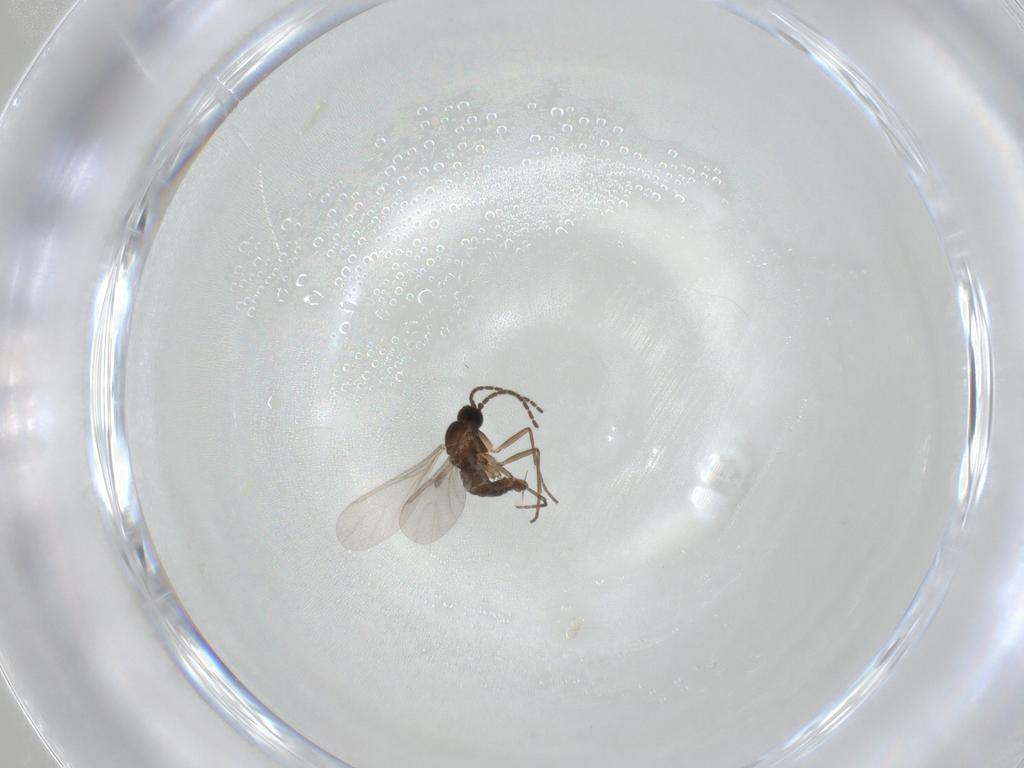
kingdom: Animalia
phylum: Arthropoda
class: Insecta
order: Diptera
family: Sciaridae
